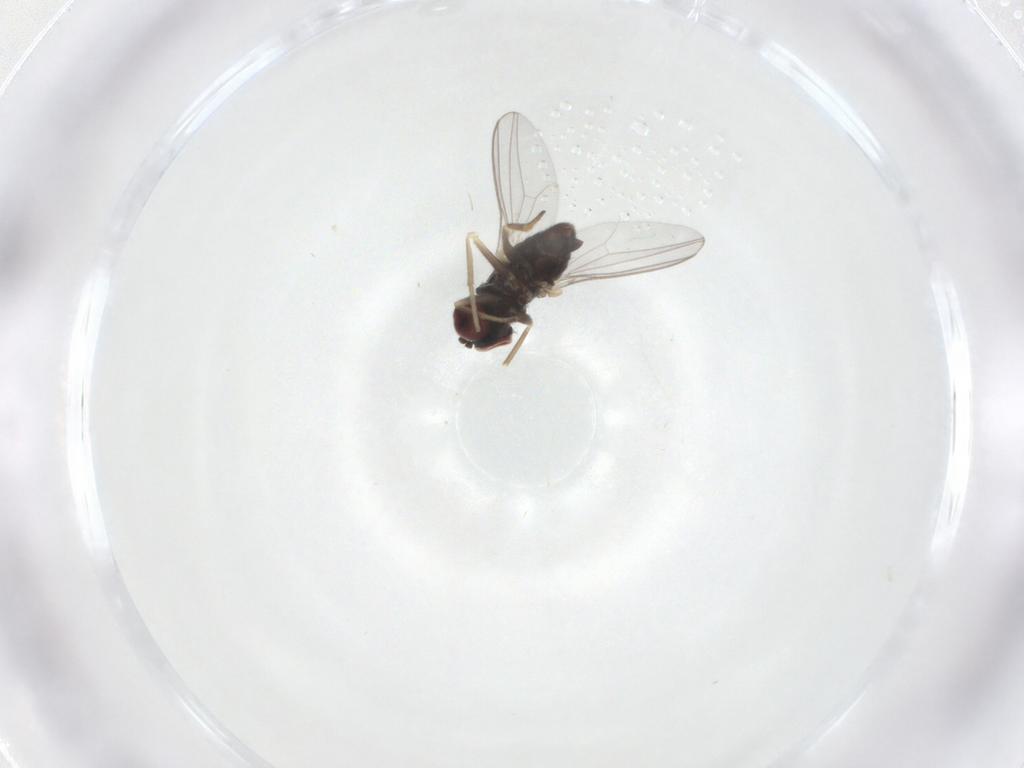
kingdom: Animalia
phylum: Arthropoda
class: Insecta
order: Diptera
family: Dolichopodidae
